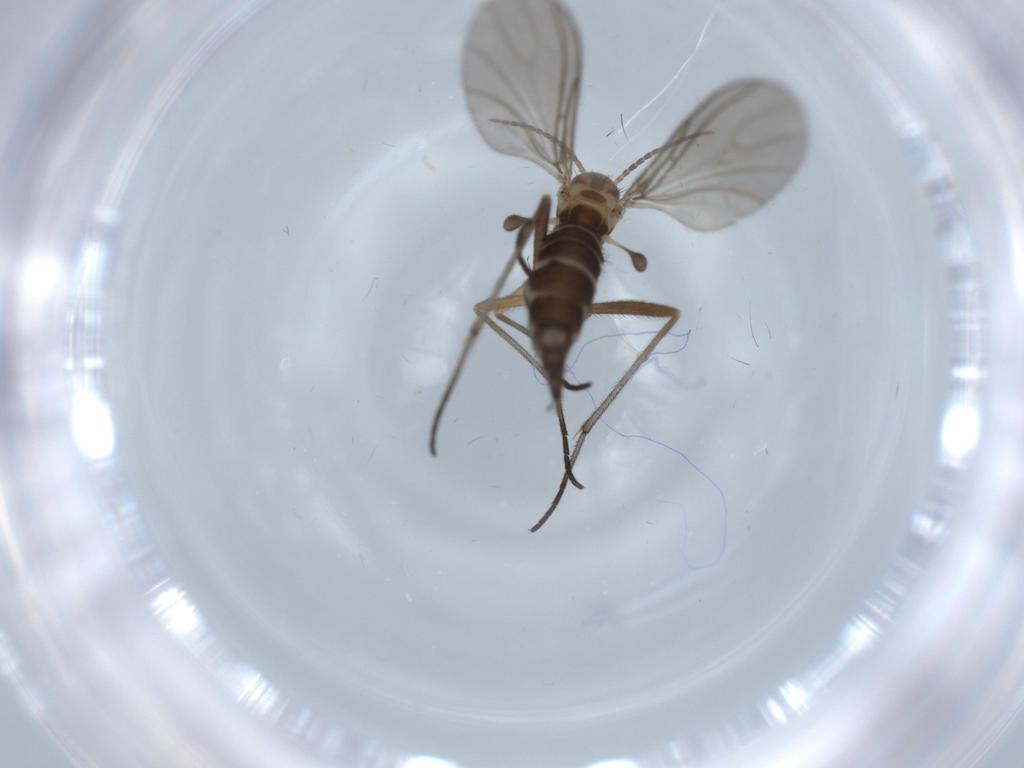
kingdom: Animalia
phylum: Arthropoda
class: Insecta
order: Diptera
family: Sciaridae
